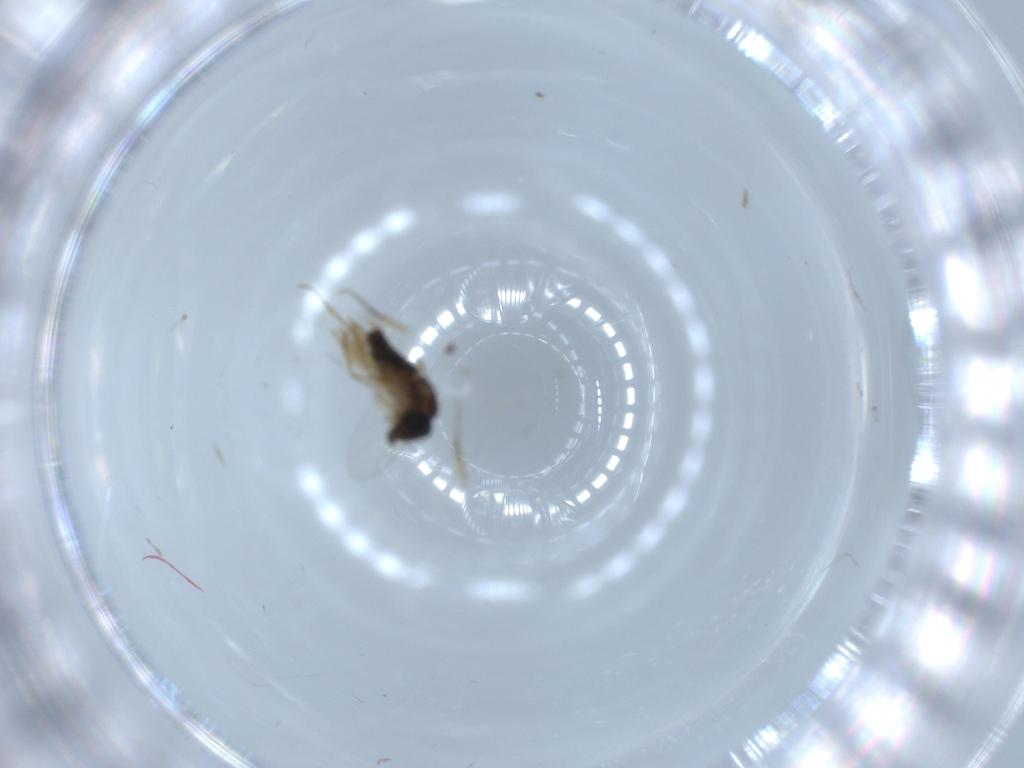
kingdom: Animalia
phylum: Arthropoda
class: Insecta
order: Diptera
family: Phoridae
